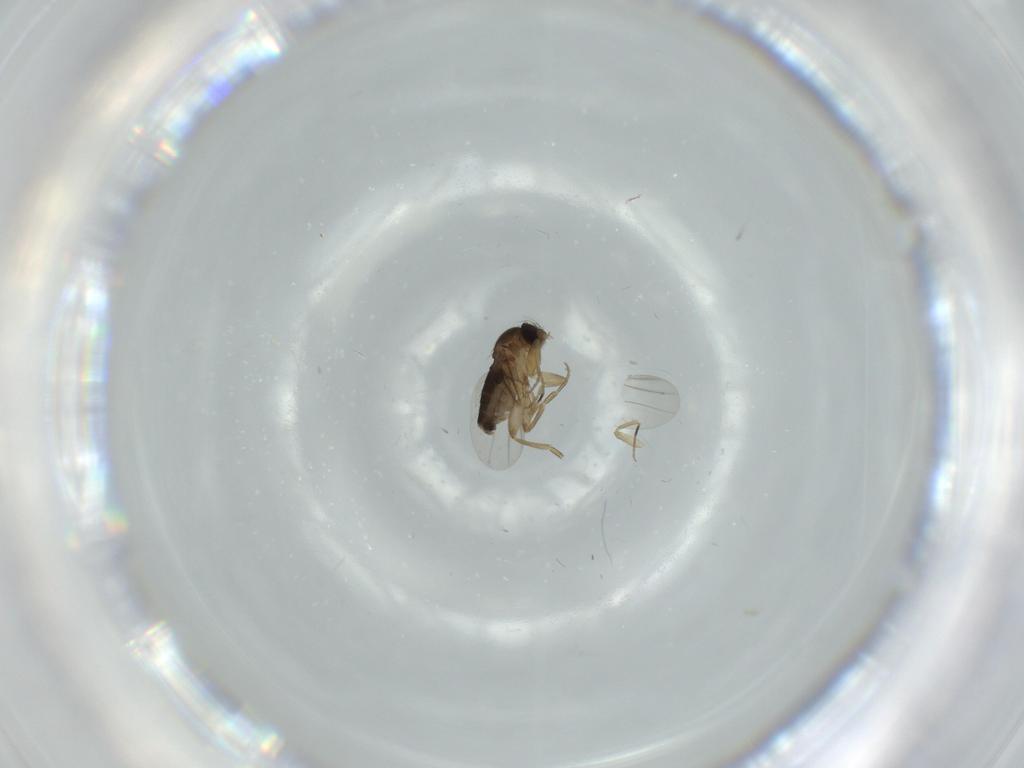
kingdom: Animalia
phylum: Arthropoda
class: Insecta
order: Diptera
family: Phoridae
